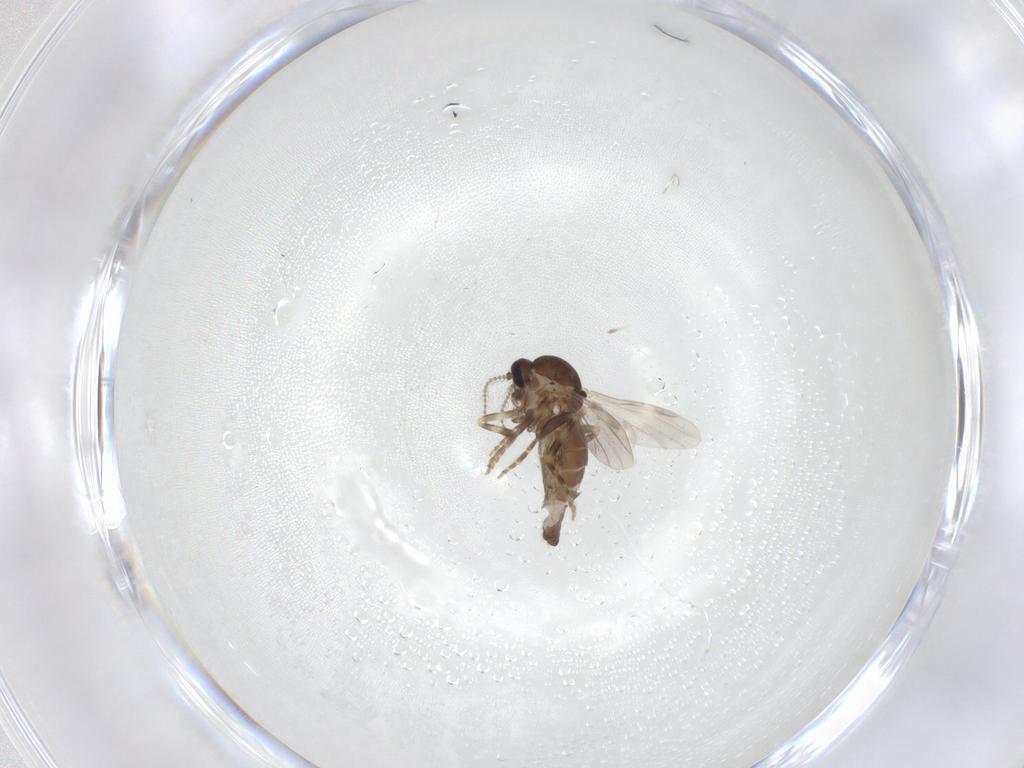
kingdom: Animalia
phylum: Arthropoda
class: Insecta
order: Diptera
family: Ceratopogonidae
